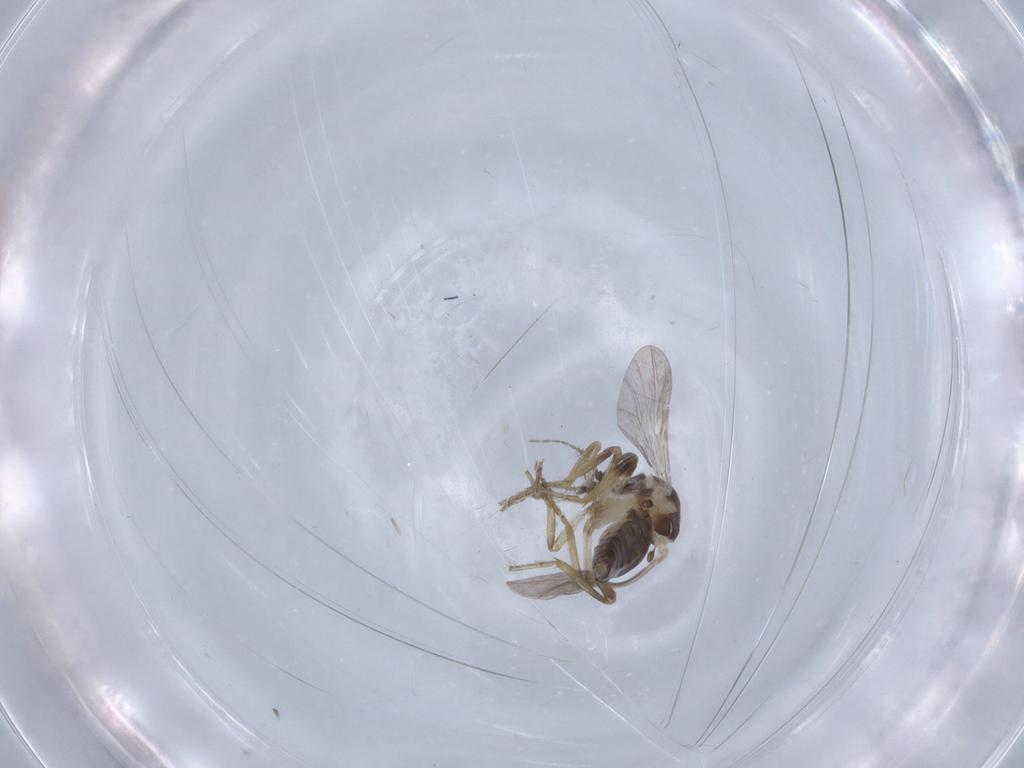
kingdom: Animalia
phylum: Arthropoda
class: Insecta
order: Diptera
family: Ceratopogonidae
